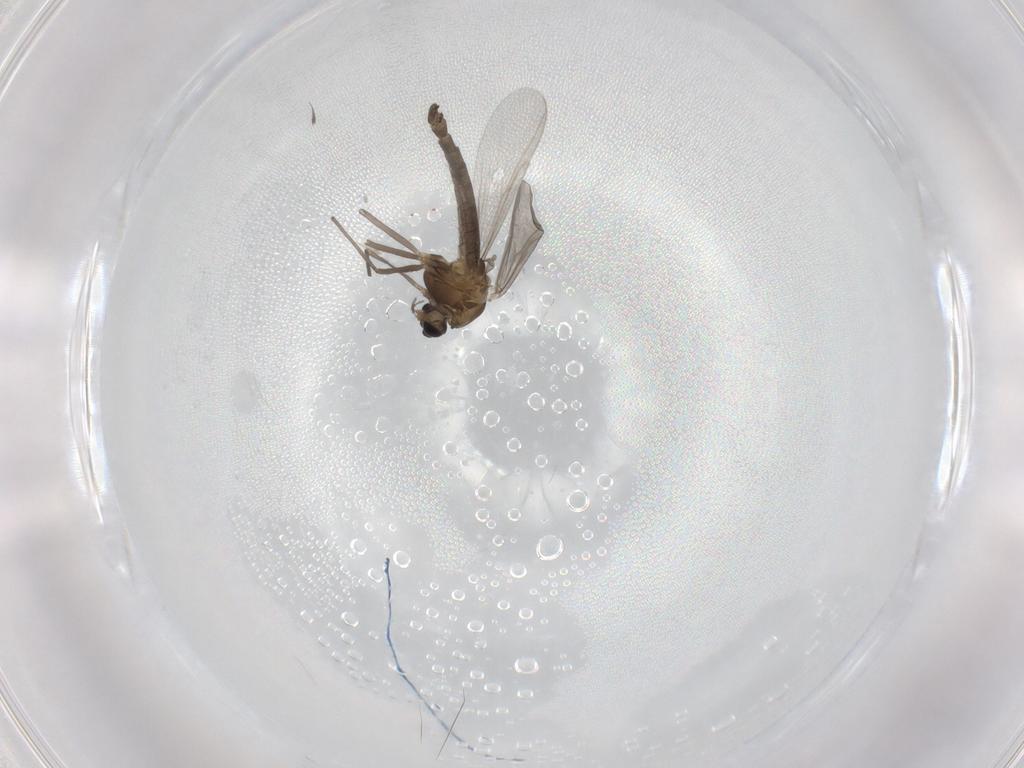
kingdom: Animalia
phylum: Arthropoda
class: Insecta
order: Diptera
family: Chironomidae
